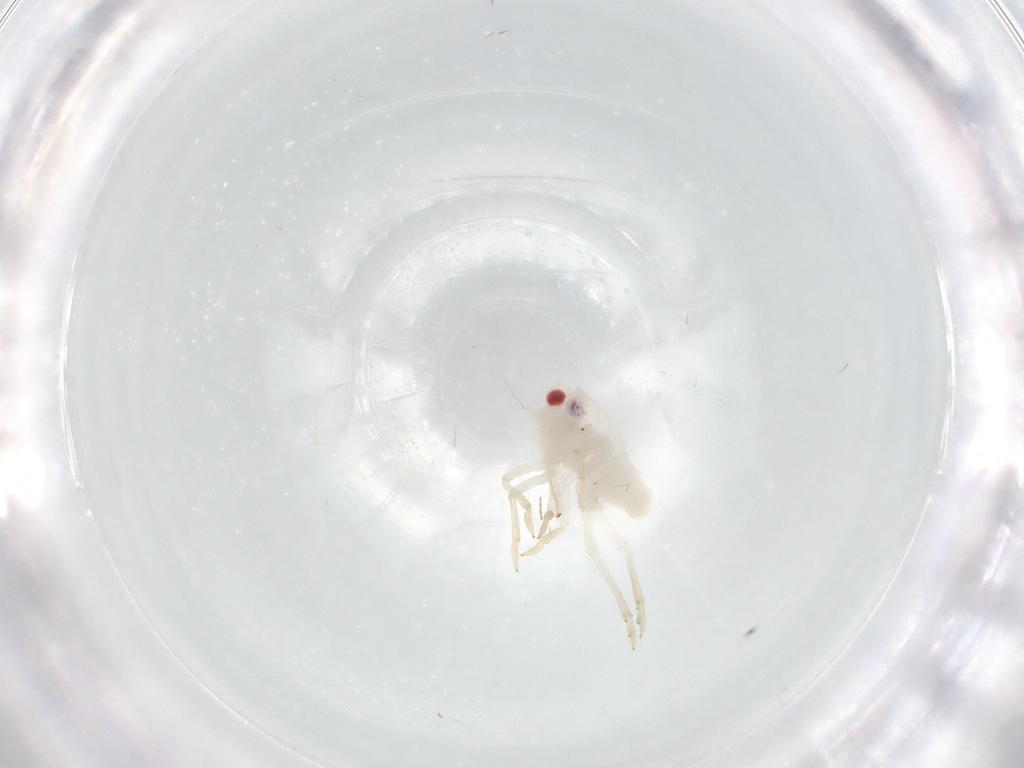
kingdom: Animalia
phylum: Arthropoda
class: Insecta
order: Hemiptera
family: Tropiduchidae
